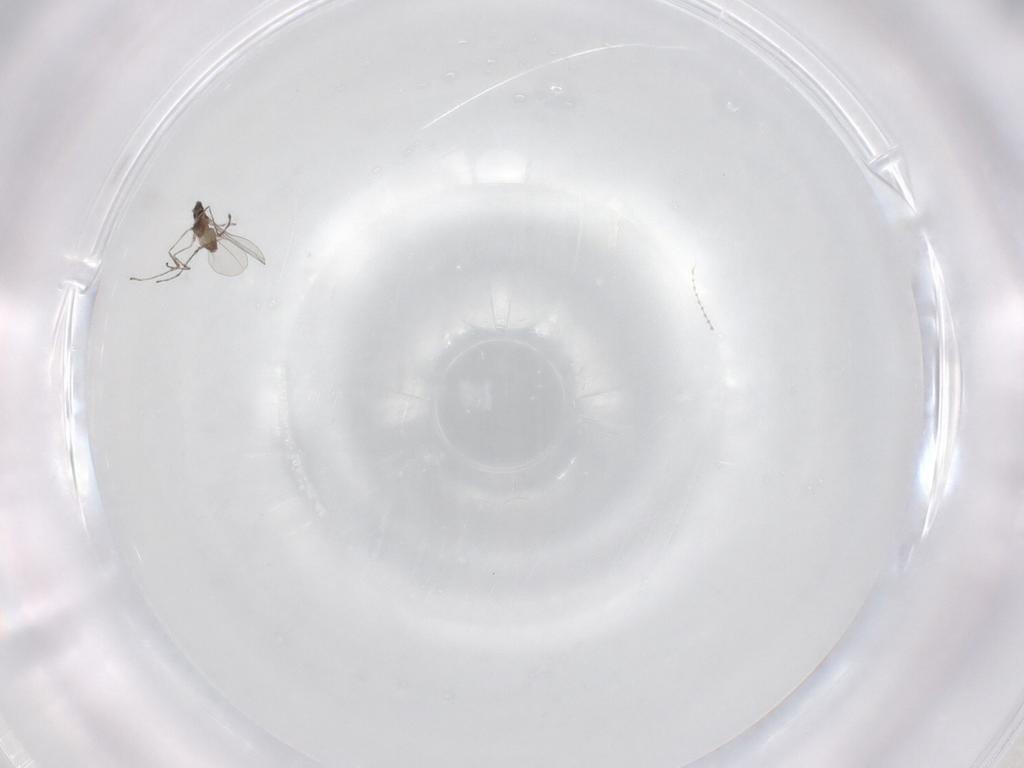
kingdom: Animalia
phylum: Arthropoda
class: Insecta
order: Diptera
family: Cecidomyiidae
